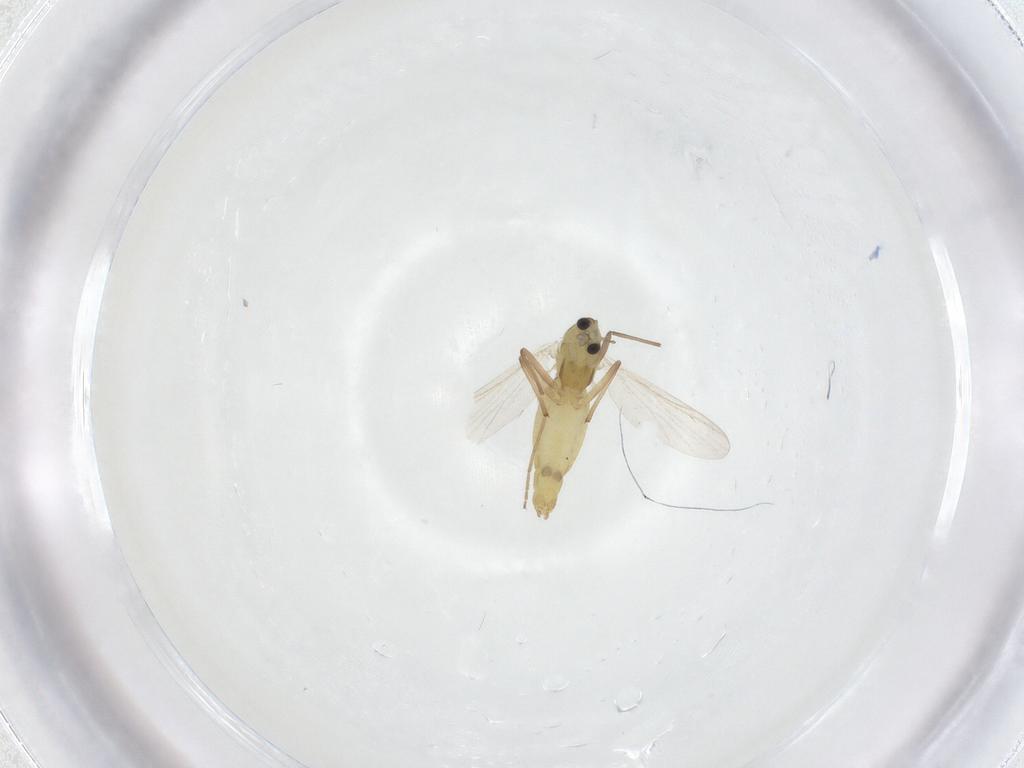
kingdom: Animalia
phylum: Arthropoda
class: Insecta
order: Diptera
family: Chironomidae
